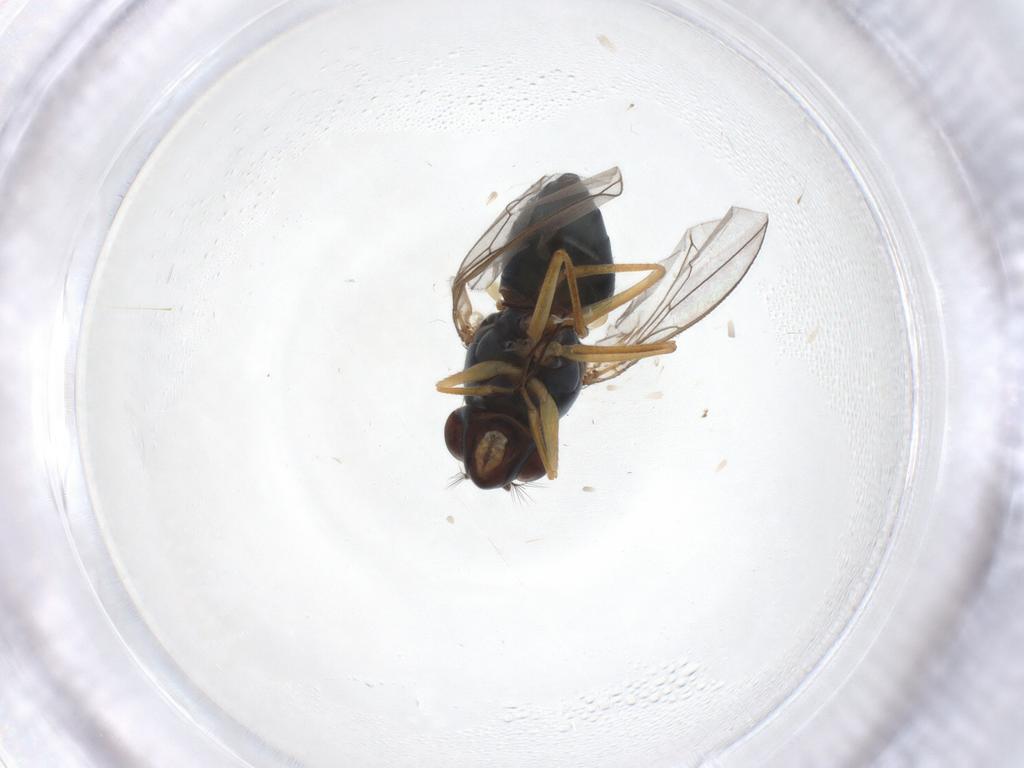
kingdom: Animalia
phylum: Arthropoda
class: Insecta
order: Diptera
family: Ephydridae
